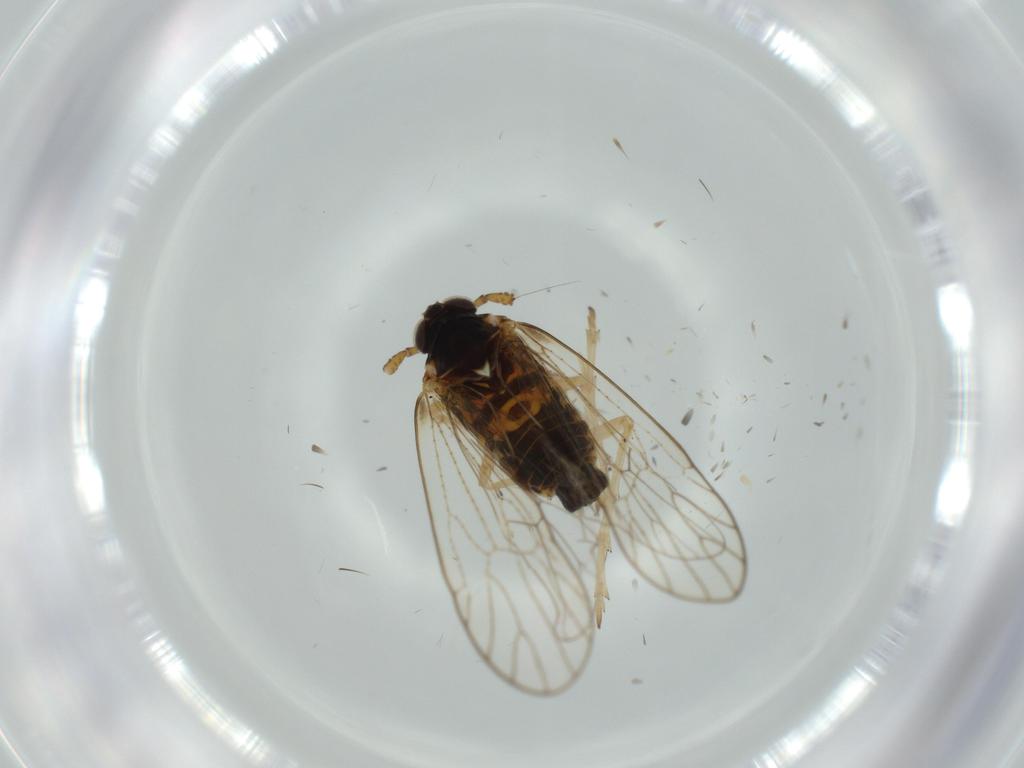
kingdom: Animalia
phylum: Arthropoda
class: Insecta
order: Hemiptera
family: Cicadellidae
